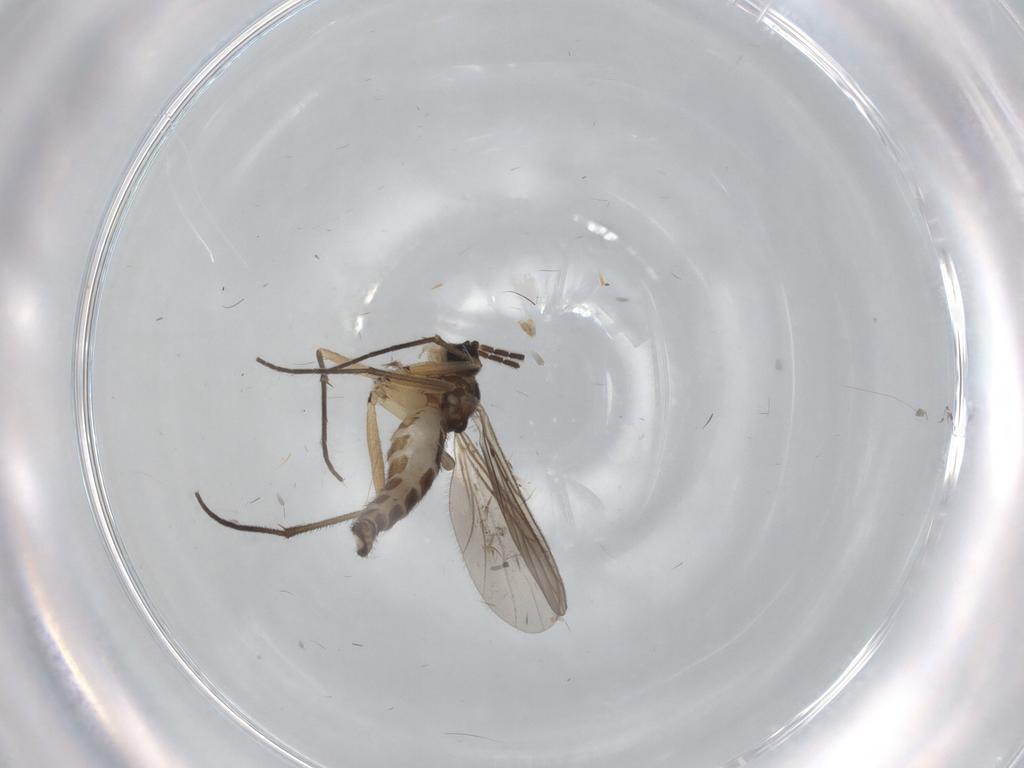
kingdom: Animalia
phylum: Arthropoda
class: Insecta
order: Diptera
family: Sciaridae
